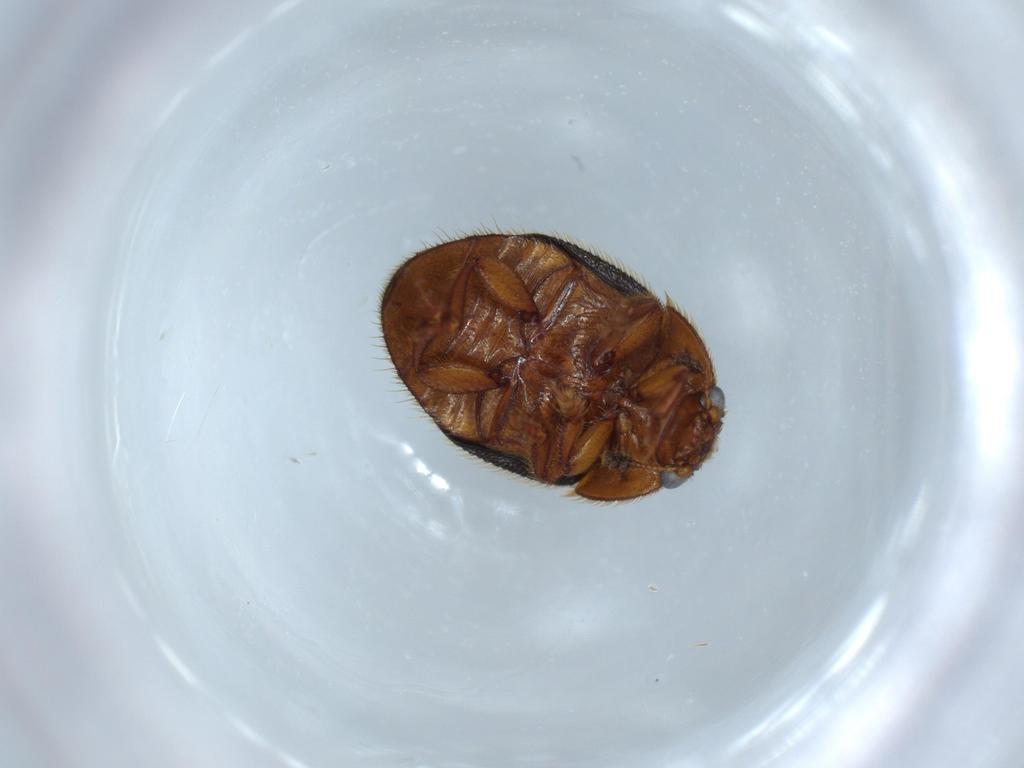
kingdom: Animalia
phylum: Arthropoda
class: Insecta
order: Coleoptera
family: Nitidulidae
